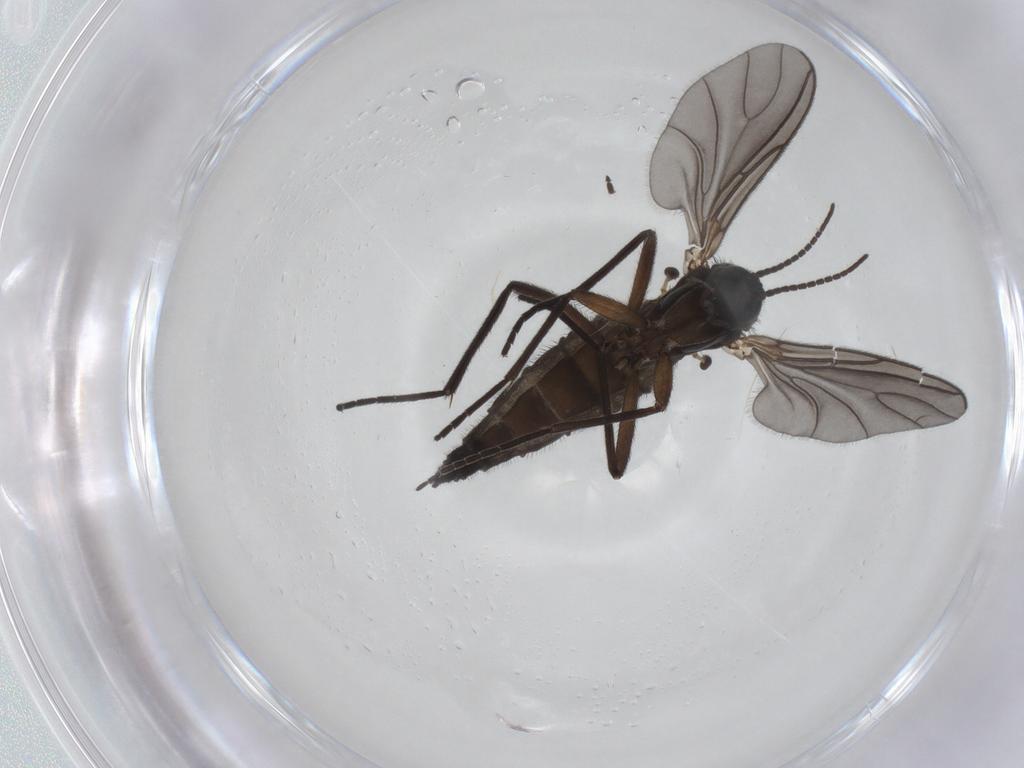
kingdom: Animalia
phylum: Arthropoda
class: Insecta
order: Diptera
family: Sciaridae
